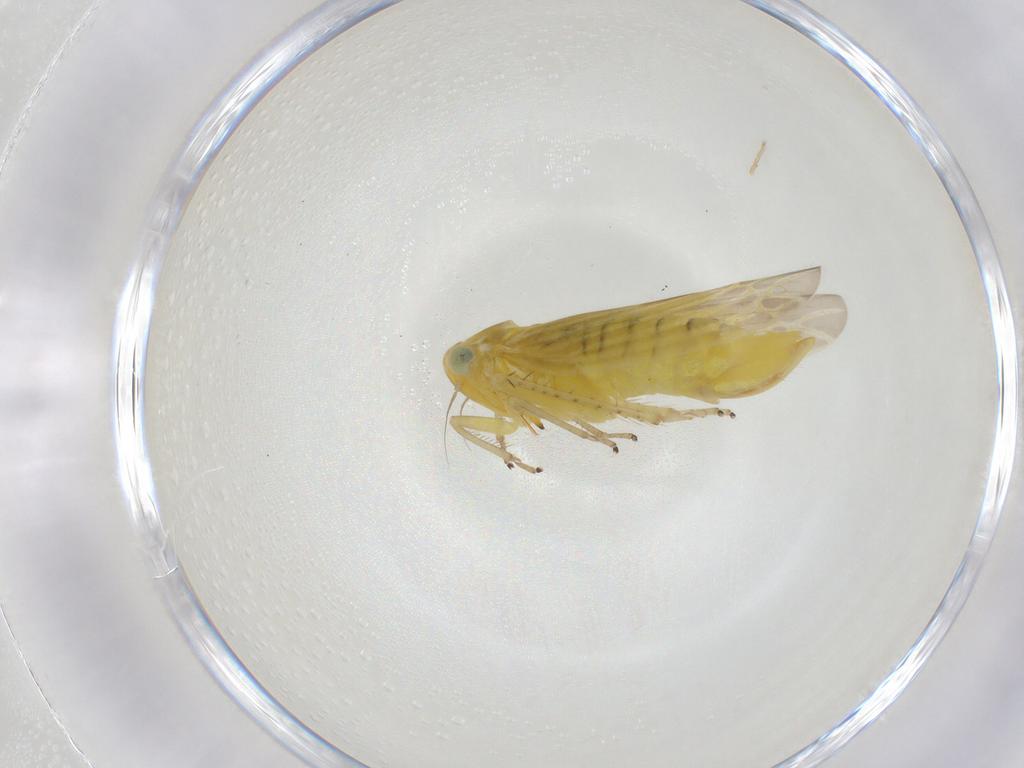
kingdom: Animalia
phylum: Arthropoda
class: Insecta
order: Hemiptera
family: Cicadellidae
